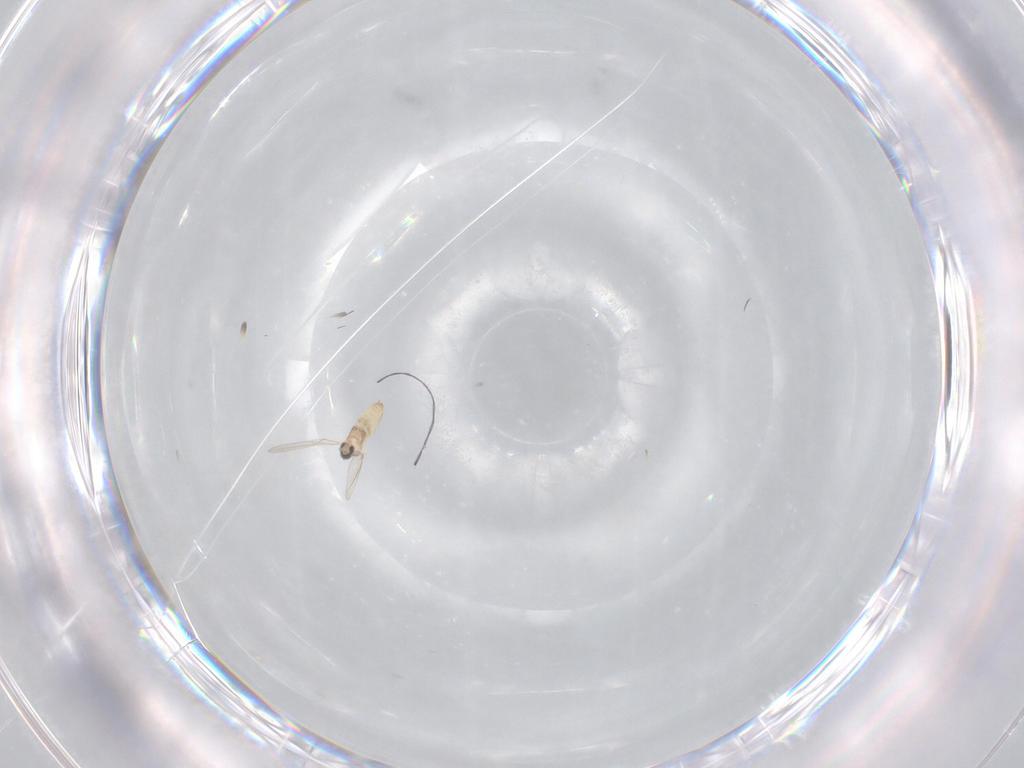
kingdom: Animalia
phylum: Arthropoda
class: Insecta
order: Diptera
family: Cecidomyiidae
